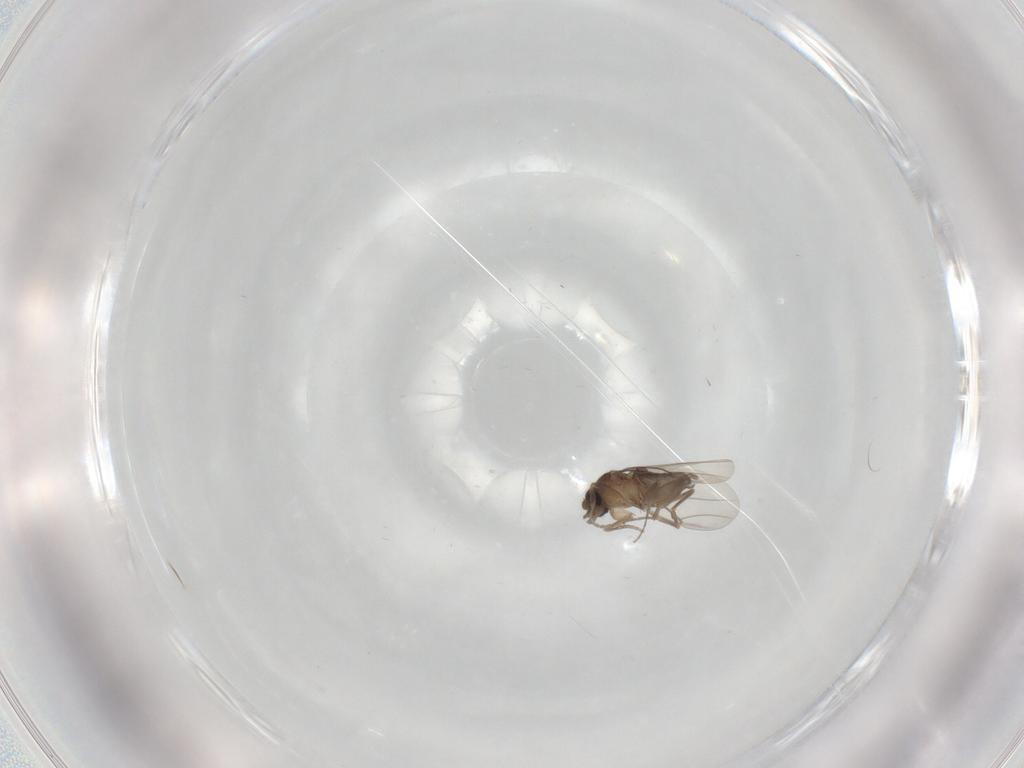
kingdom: Animalia
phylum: Arthropoda
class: Insecta
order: Diptera
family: Phoridae
